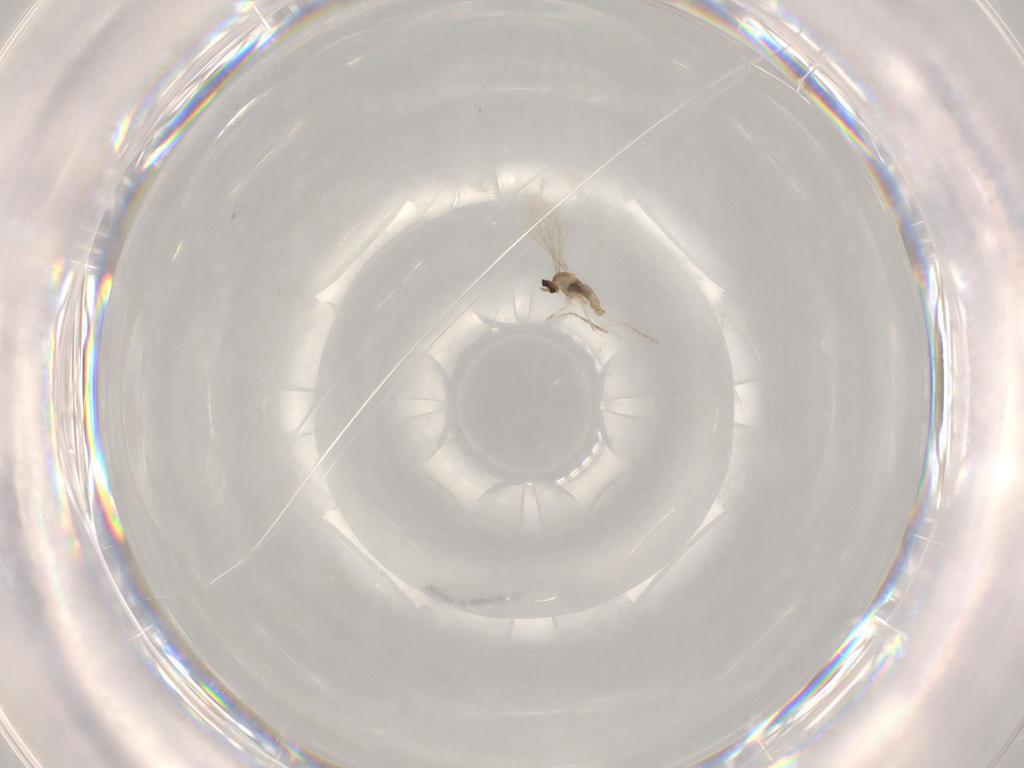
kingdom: Animalia
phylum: Arthropoda
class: Insecta
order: Diptera
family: Cecidomyiidae
